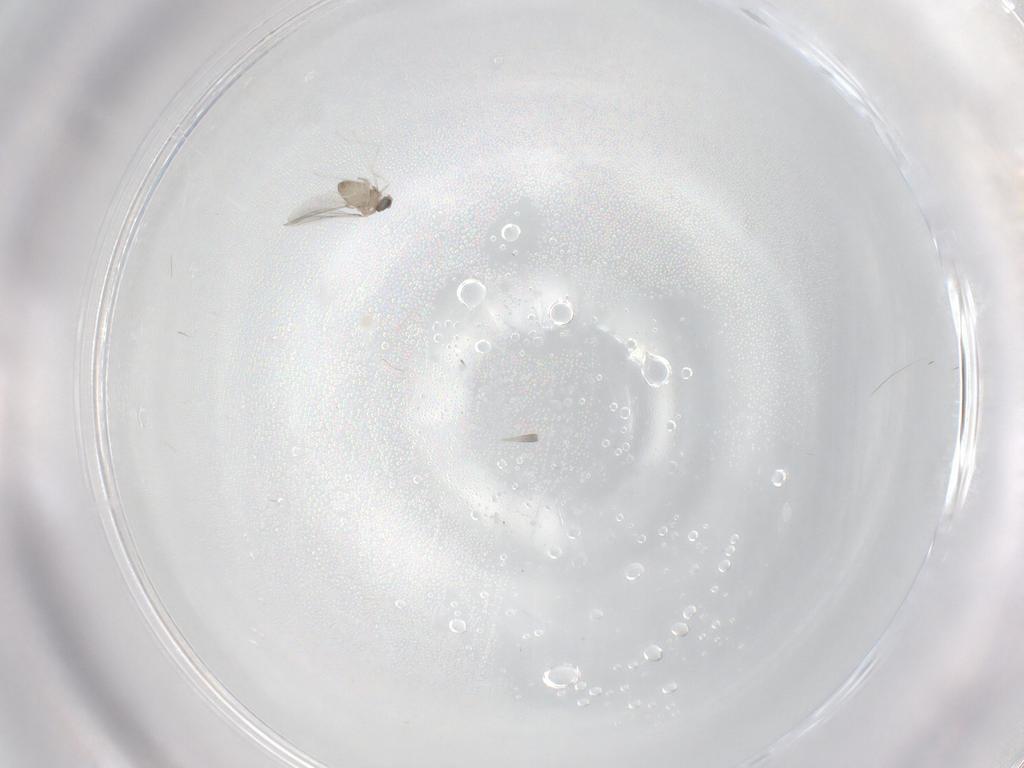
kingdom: Animalia
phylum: Arthropoda
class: Insecta
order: Diptera
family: Cecidomyiidae
